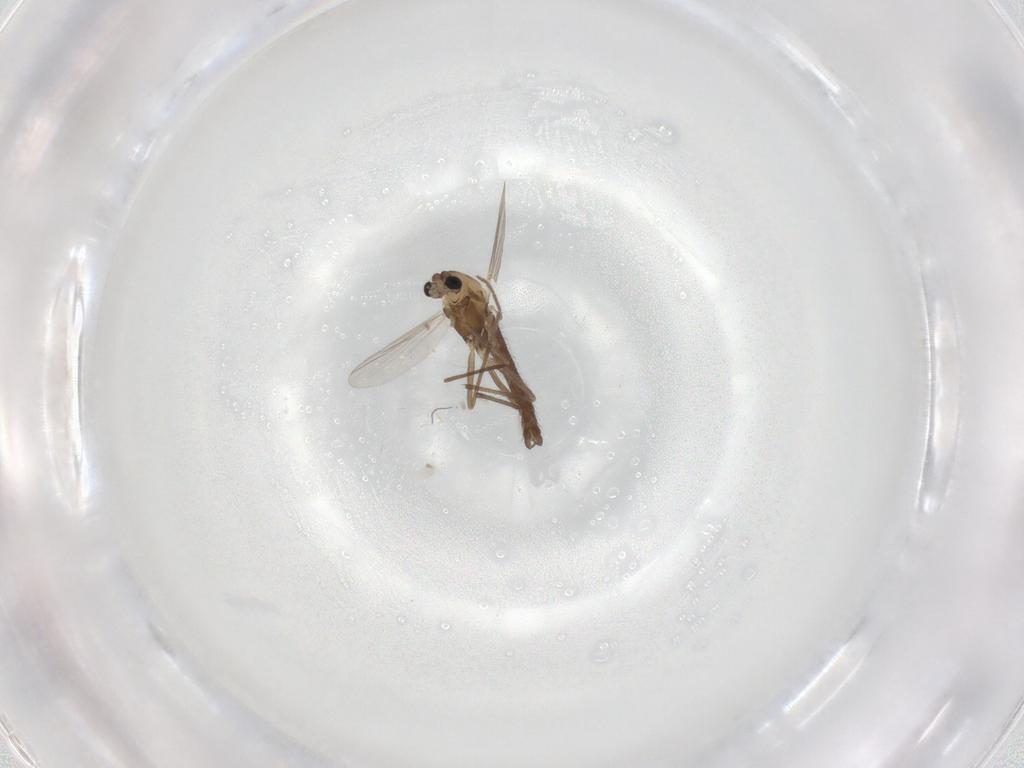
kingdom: Animalia
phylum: Arthropoda
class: Insecta
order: Diptera
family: Chironomidae
